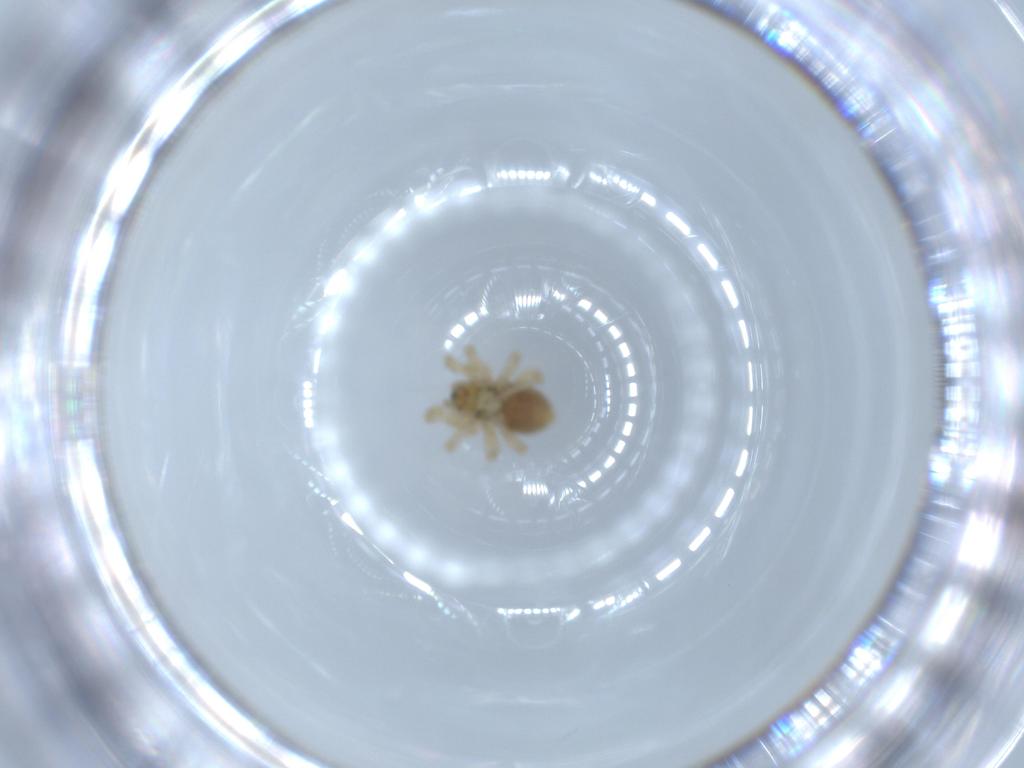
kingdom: Animalia
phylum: Arthropoda
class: Arachnida
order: Araneae
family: Linyphiidae
